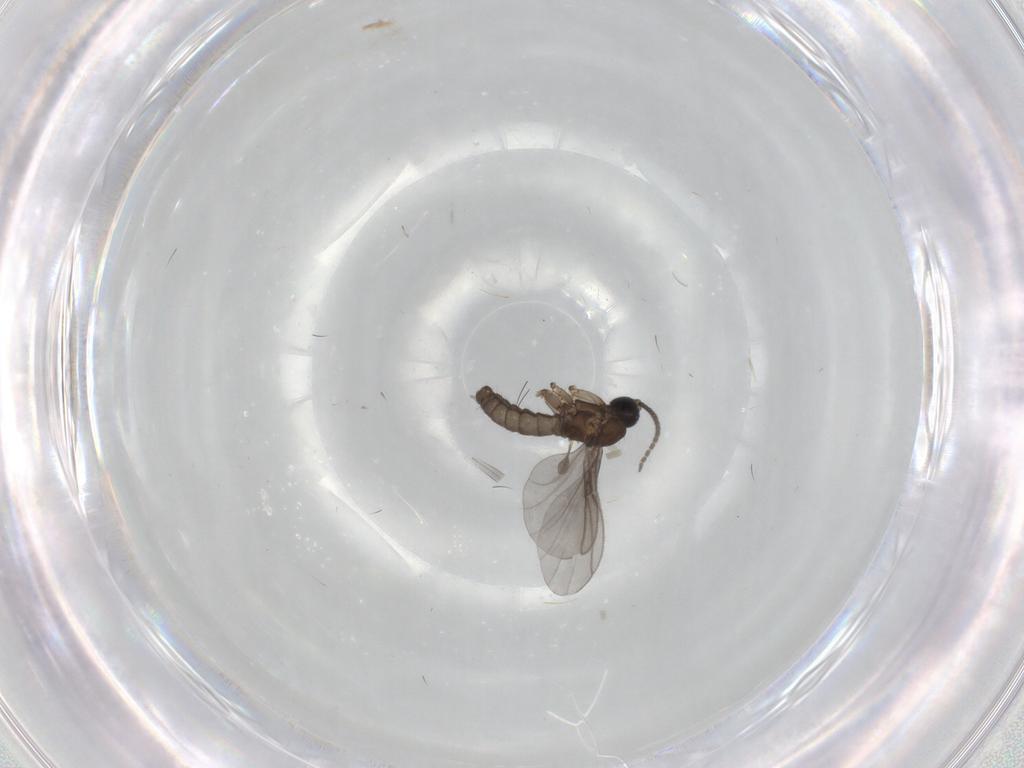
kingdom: Animalia
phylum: Arthropoda
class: Insecta
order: Diptera
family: Sciaridae
